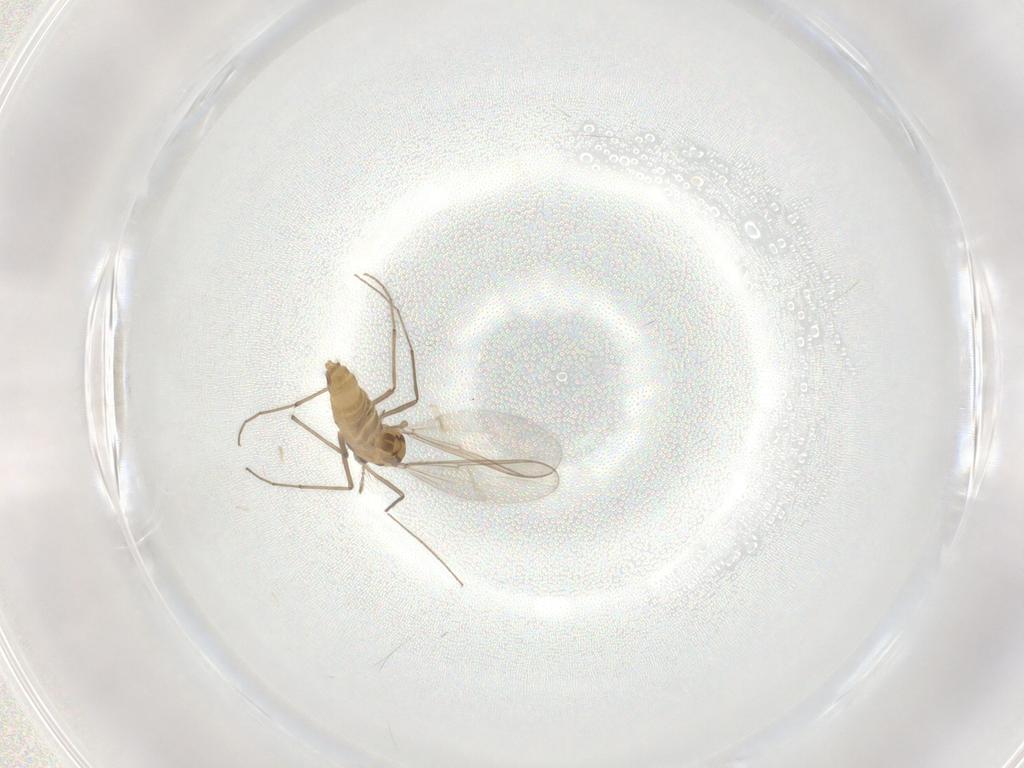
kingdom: Animalia
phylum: Arthropoda
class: Insecta
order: Diptera
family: Chironomidae
